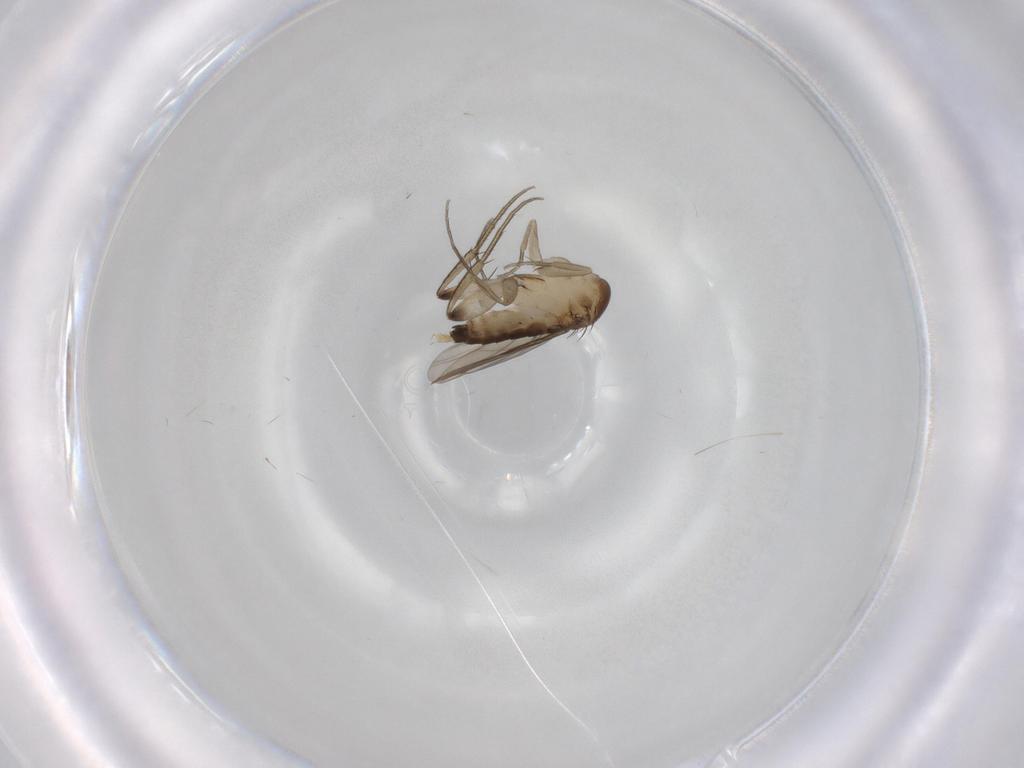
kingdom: Animalia
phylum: Arthropoda
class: Insecta
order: Diptera
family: Phoridae
